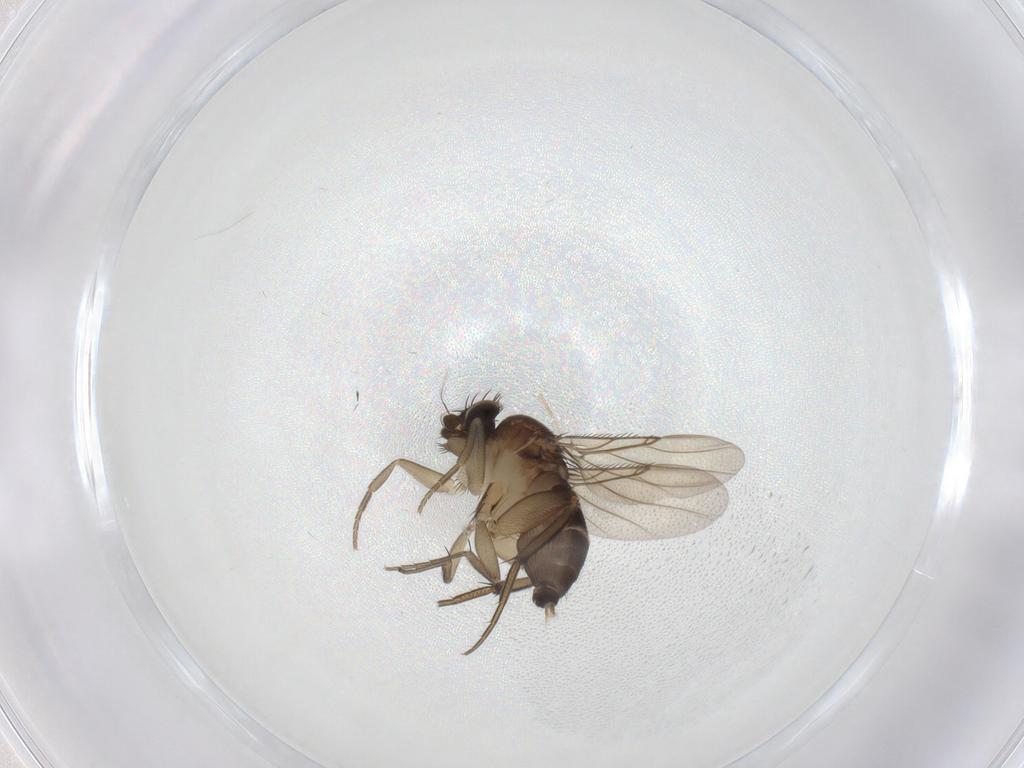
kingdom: Animalia
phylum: Arthropoda
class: Insecta
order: Diptera
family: Phoridae
